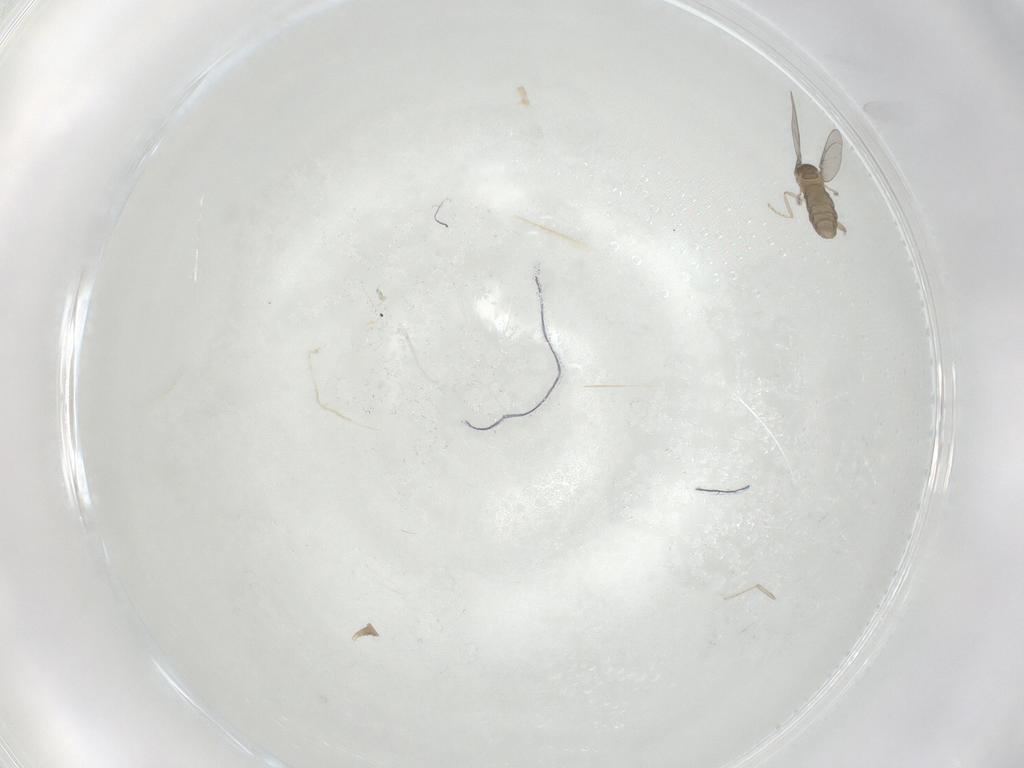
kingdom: Animalia
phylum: Arthropoda
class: Insecta
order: Diptera
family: Cecidomyiidae
